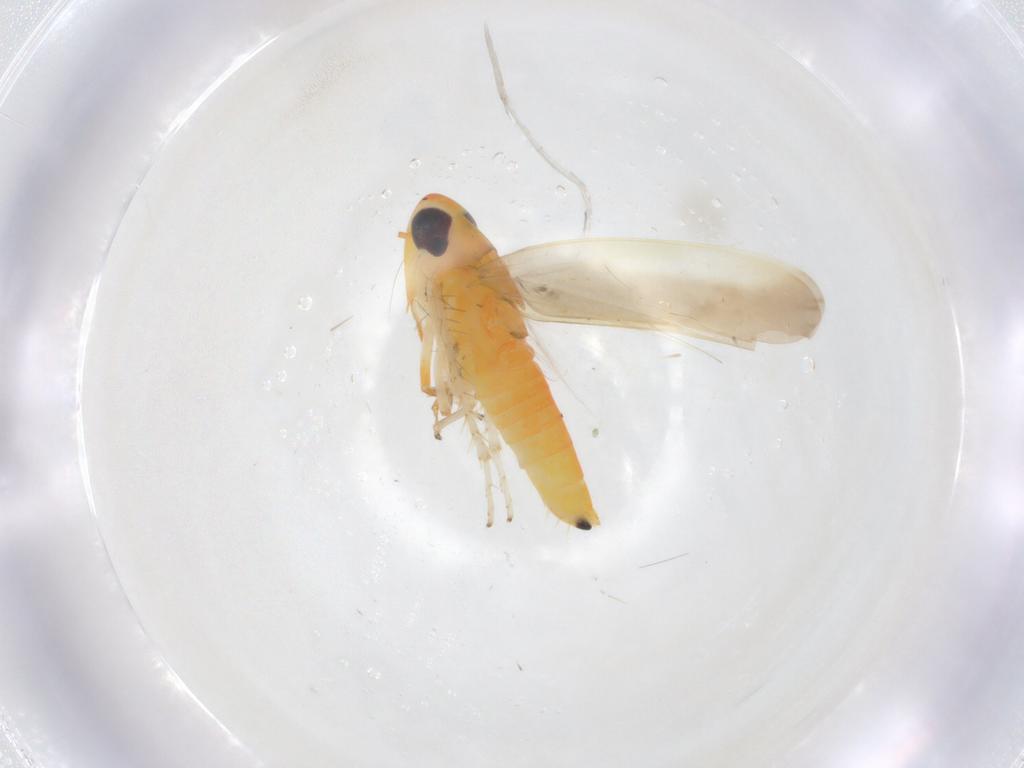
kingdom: Animalia
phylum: Arthropoda
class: Insecta
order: Hemiptera
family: Cicadellidae
